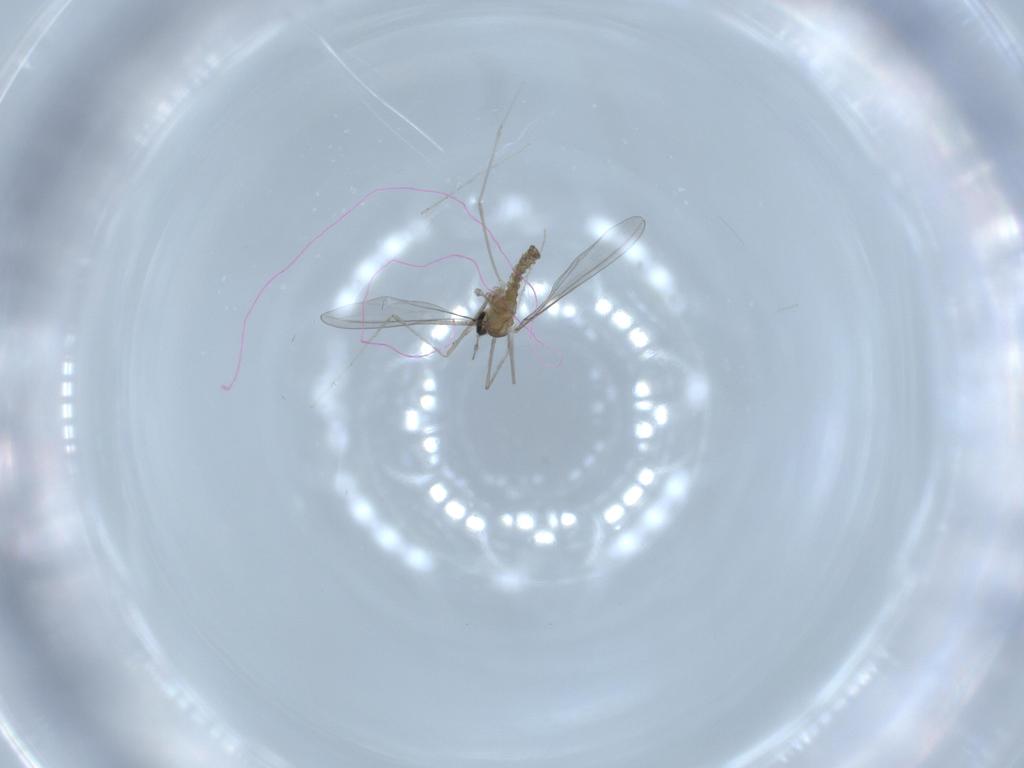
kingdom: Animalia
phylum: Arthropoda
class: Insecta
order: Diptera
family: Cecidomyiidae
